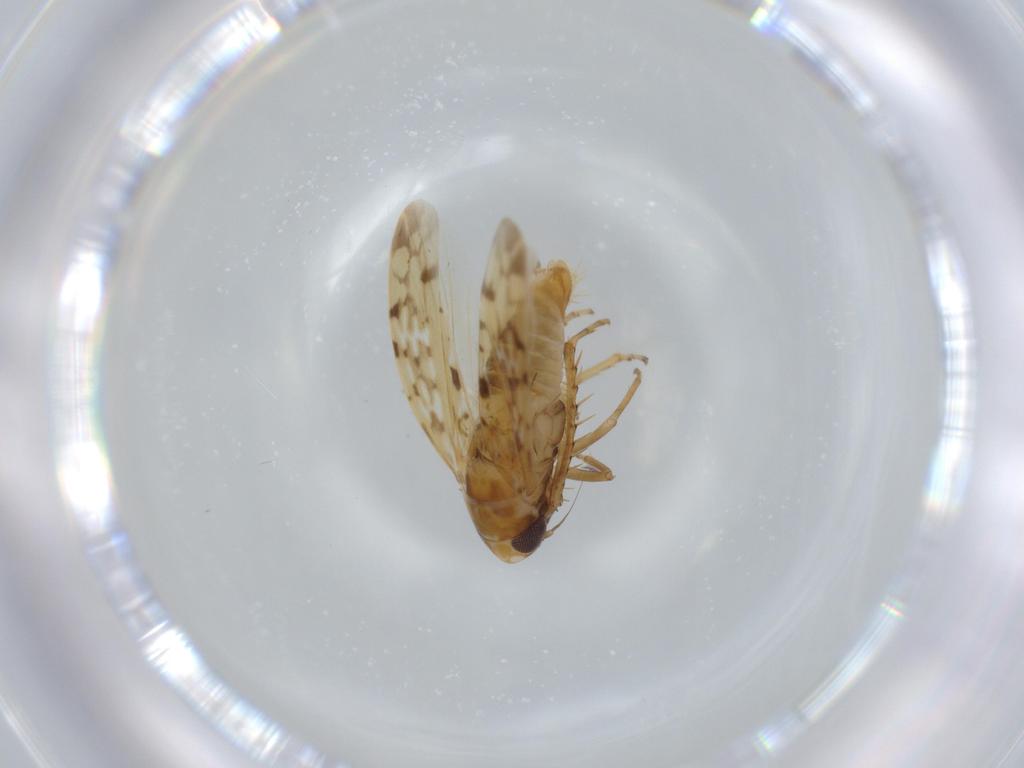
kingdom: Animalia
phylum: Arthropoda
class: Insecta
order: Hemiptera
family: Cicadellidae
